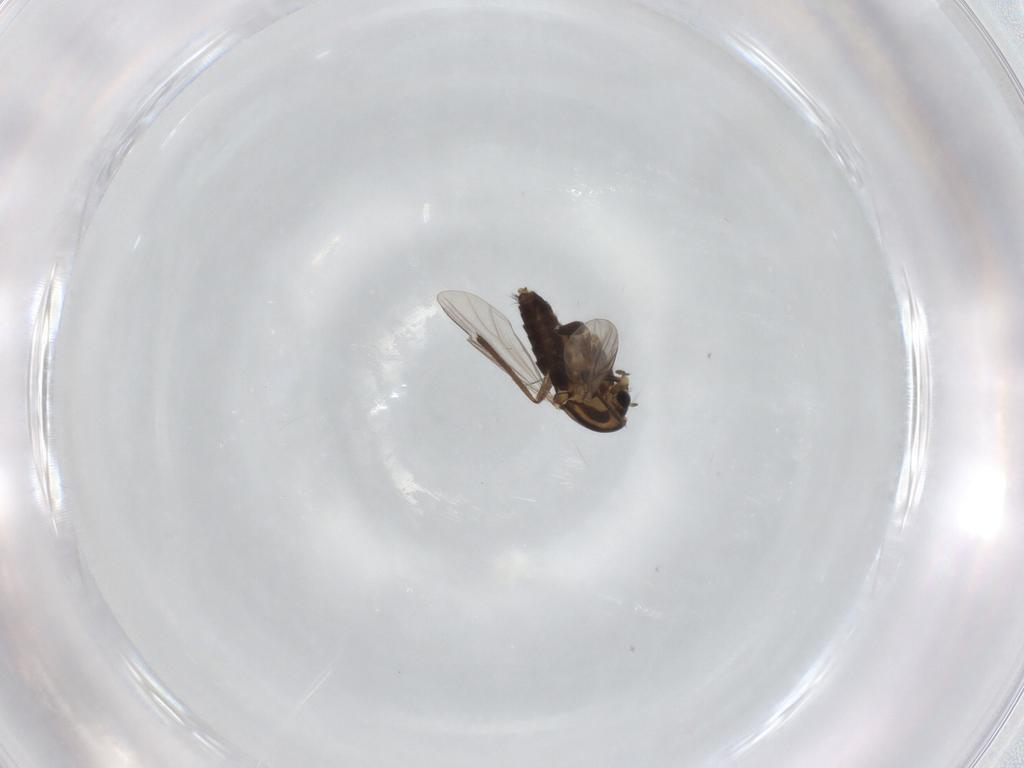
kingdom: Animalia
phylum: Arthropoda
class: Insecta
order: Diptera
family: Chironomidae
